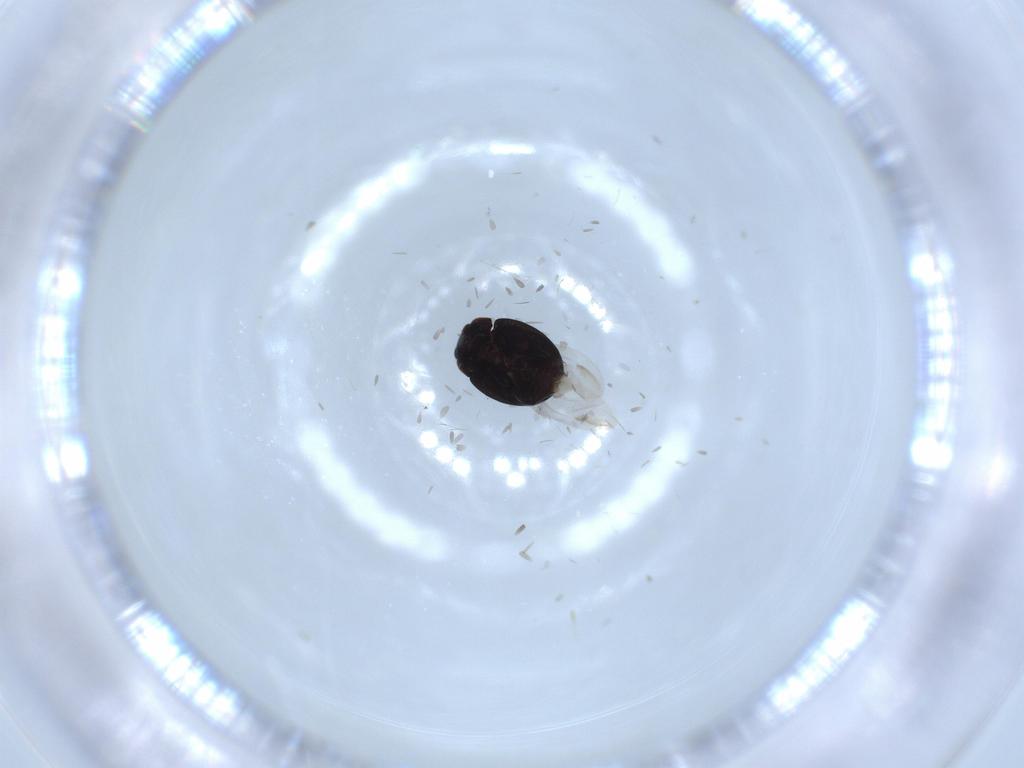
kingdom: Animalia
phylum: Arthropoda
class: Insecta
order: Coleoptera
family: Coccinellidae
